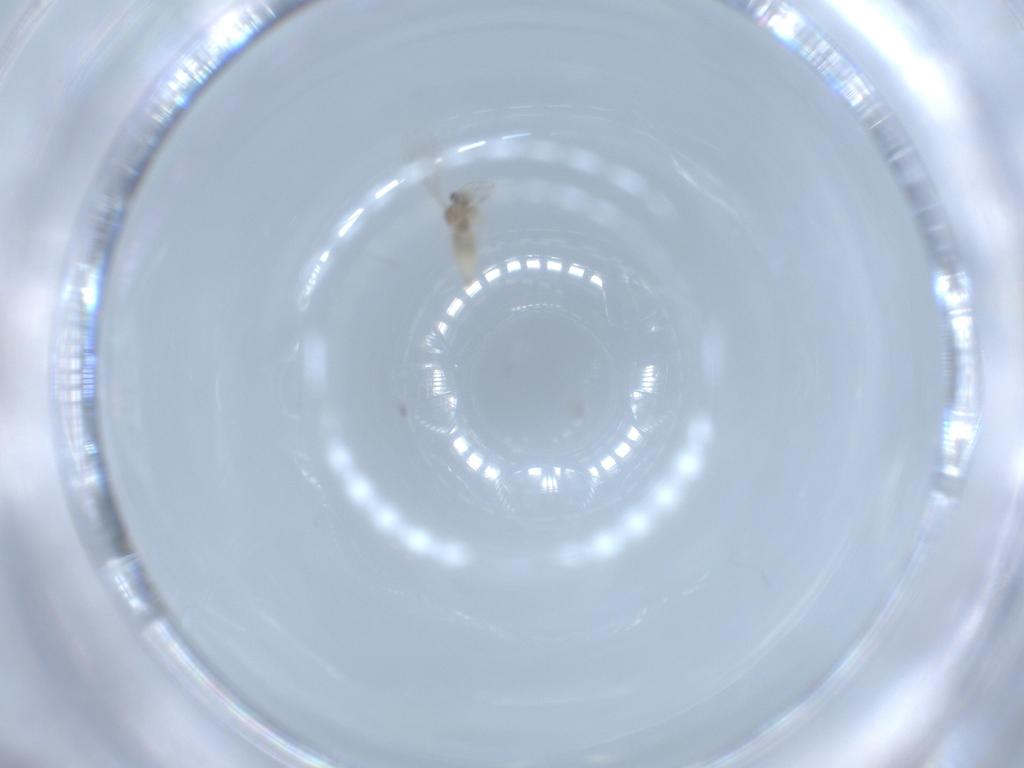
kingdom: Animalia
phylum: Arthropoda
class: Insecta
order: Diptera
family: Cecidomyiidae
